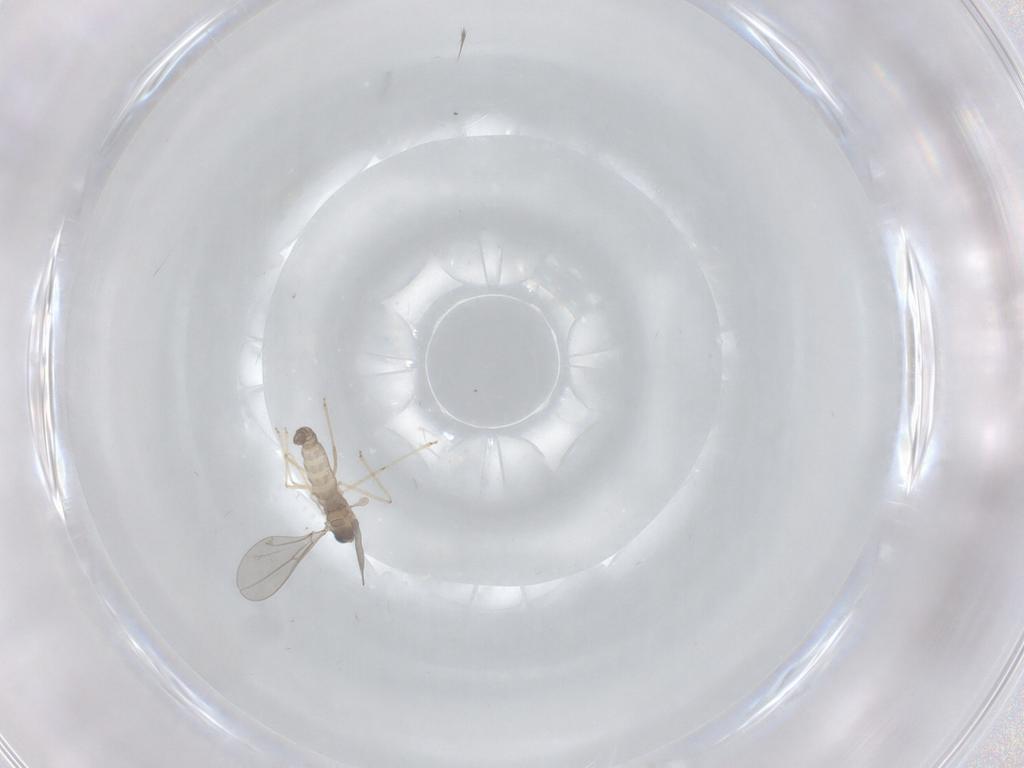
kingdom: Animalia
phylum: Arthropoda
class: Insecta
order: Diptera
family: Cecidomyiidae
